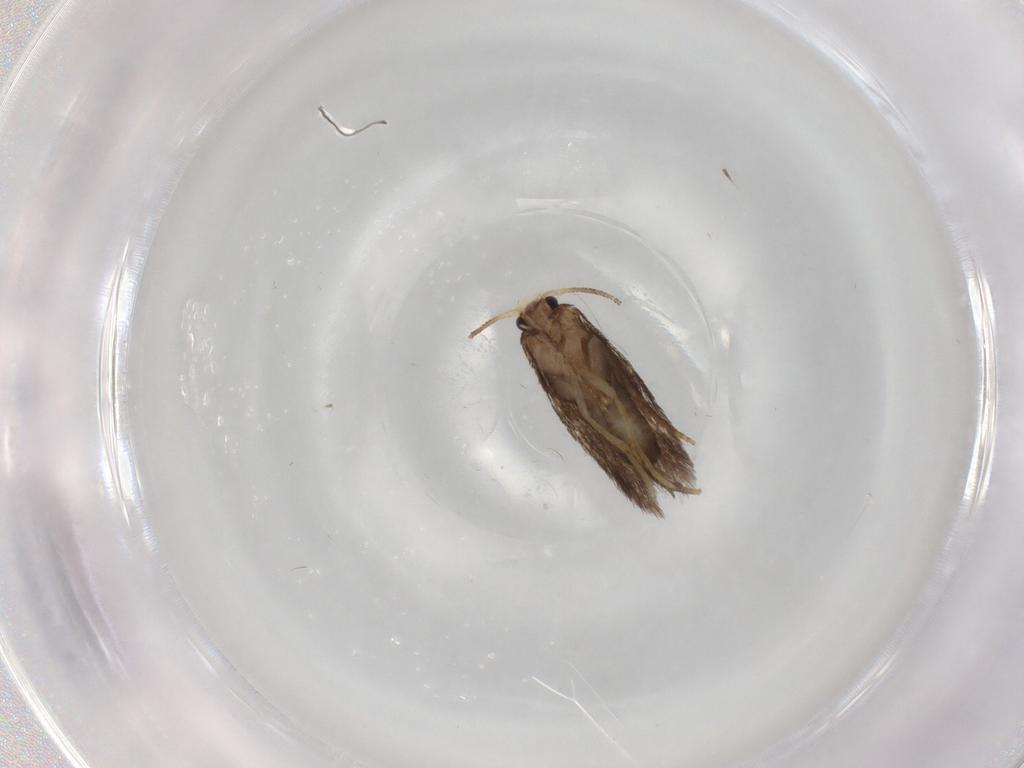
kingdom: Animalia
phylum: Arthropoda
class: Insecta
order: Lepidoptera
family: Nepticulidae
